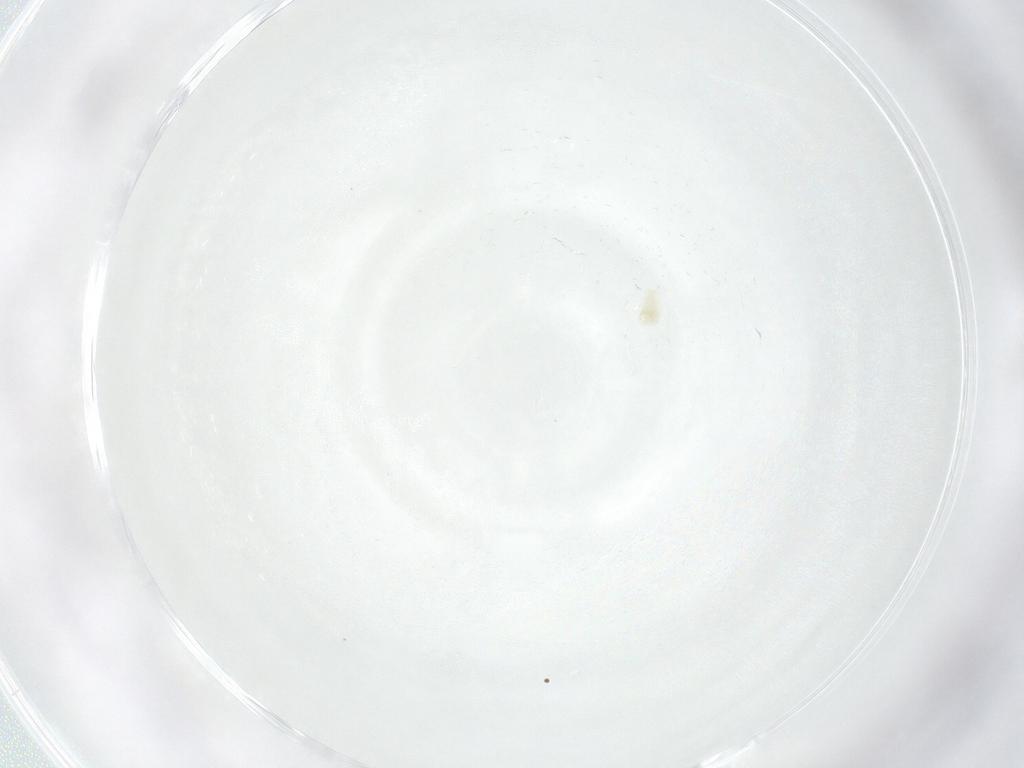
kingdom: Animalia
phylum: Arthropoda
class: Arachnida
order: Sarcoptiformes
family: Nanorchestidae
